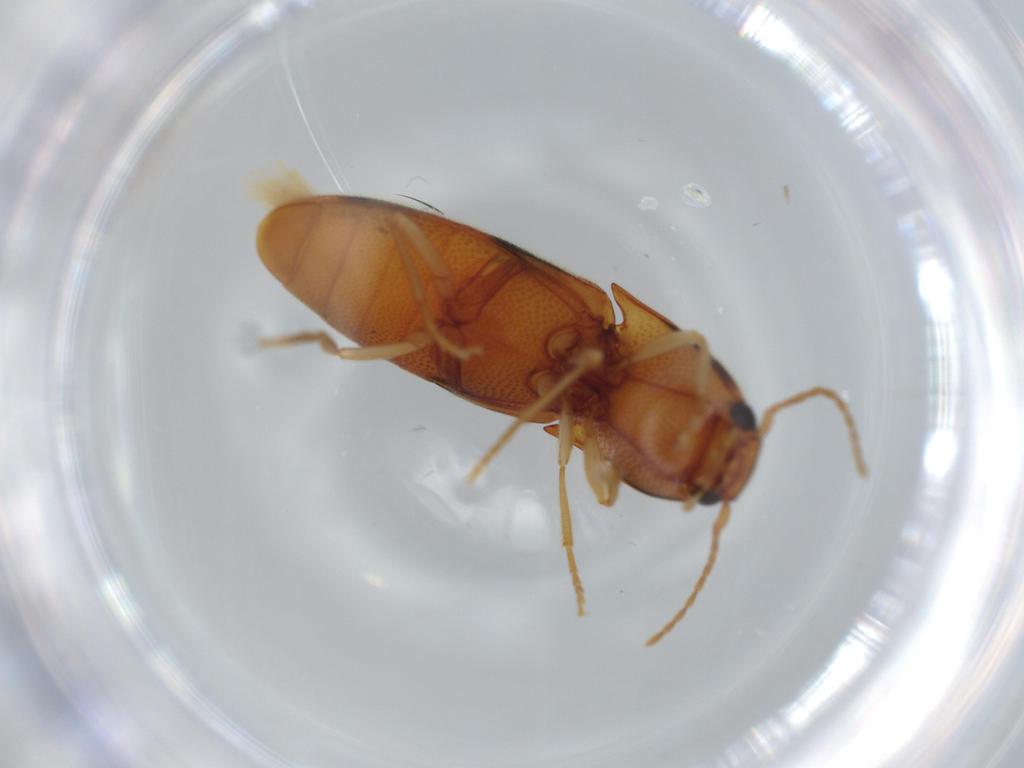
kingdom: Animalia
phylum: Arthropoda
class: Insecta
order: Coleoptera
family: Elateridae
